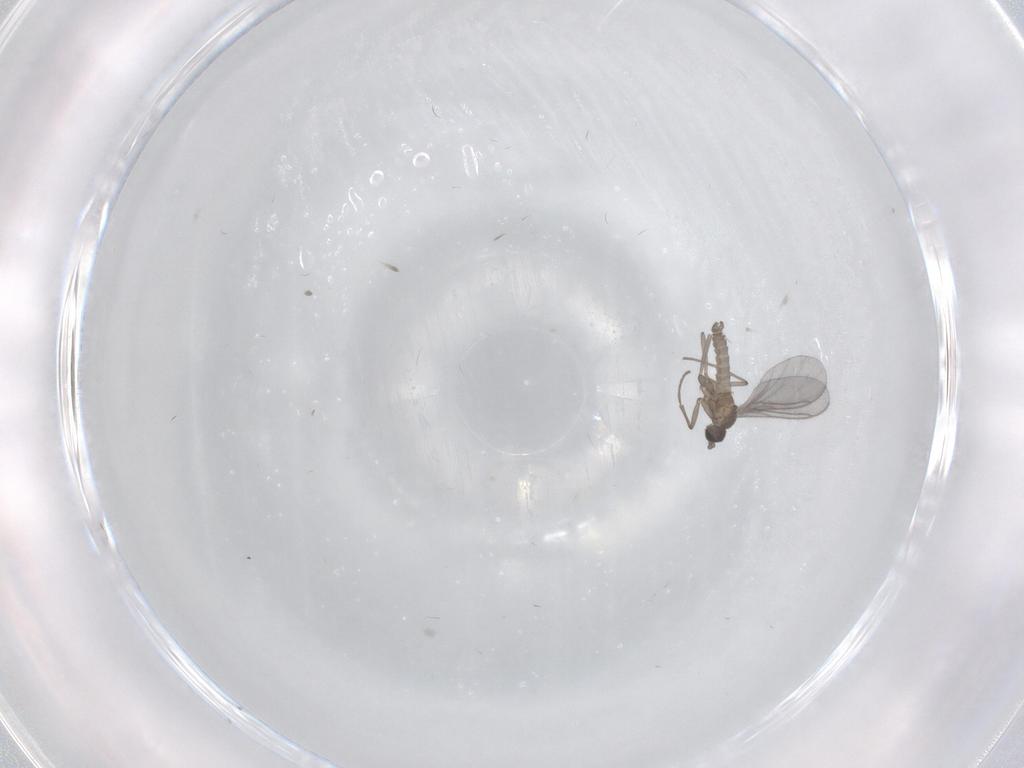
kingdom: Animalia
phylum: Arthropoda
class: Insecta
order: Diptera
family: Sciaridae
